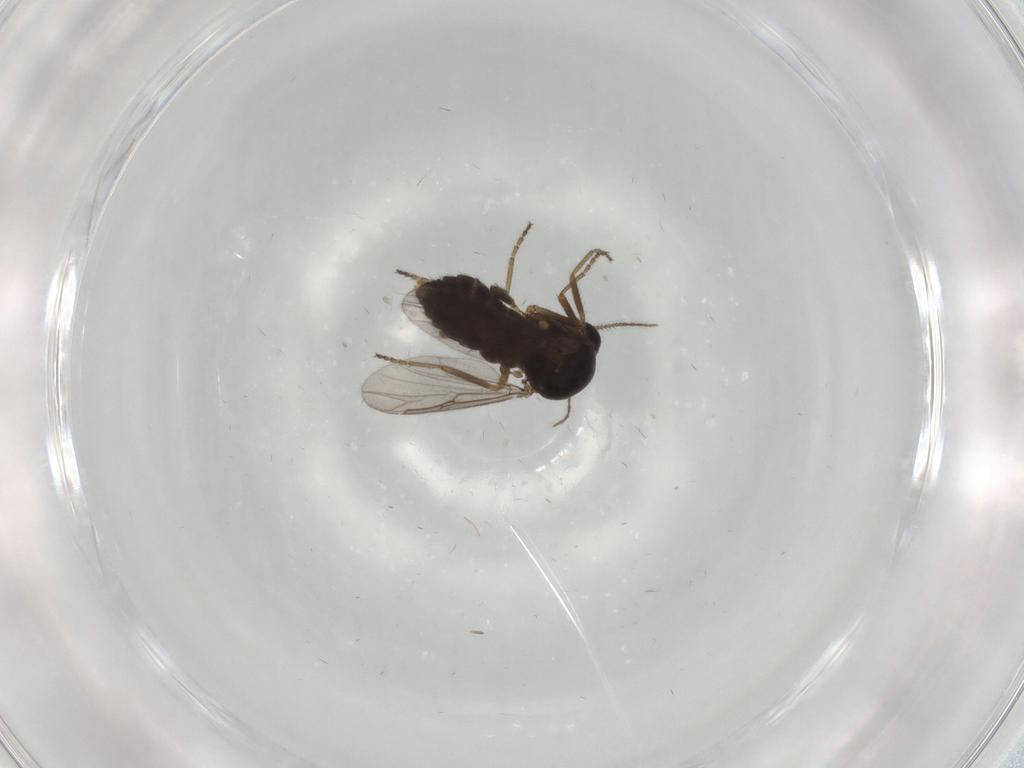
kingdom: Animalia
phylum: Arthropoda
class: Insecta
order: Diptera
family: Ceratopogonidae
